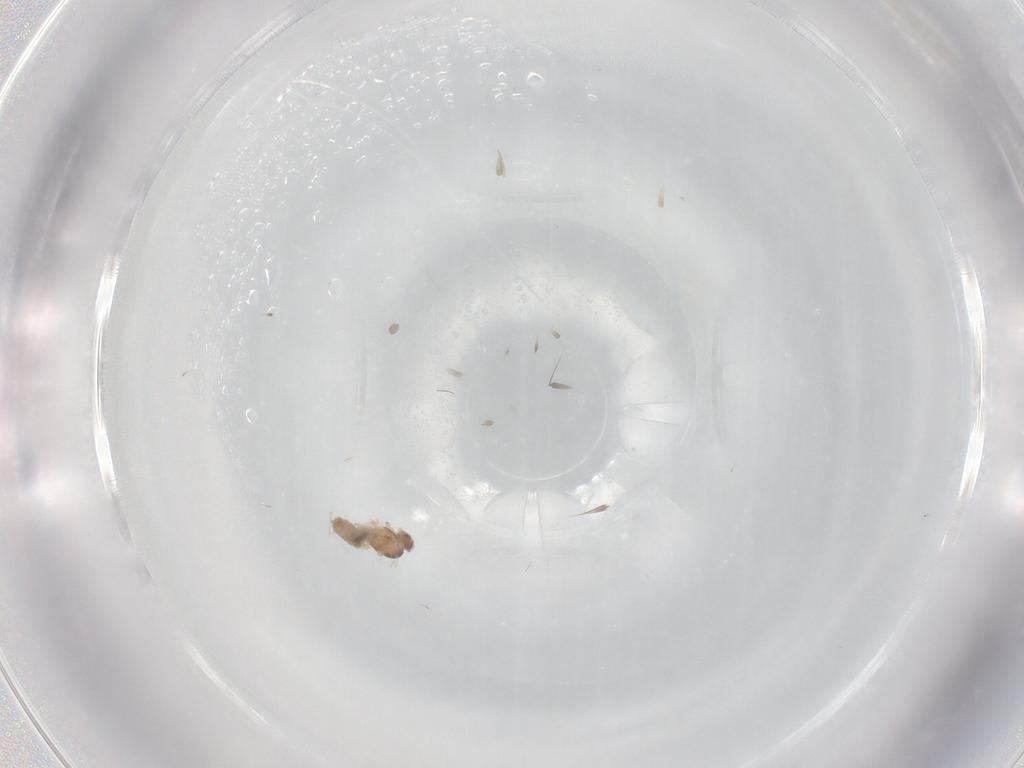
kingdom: Animalia
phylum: Arthropoda
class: Insecta
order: Diptera
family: Cecidomyiidae
